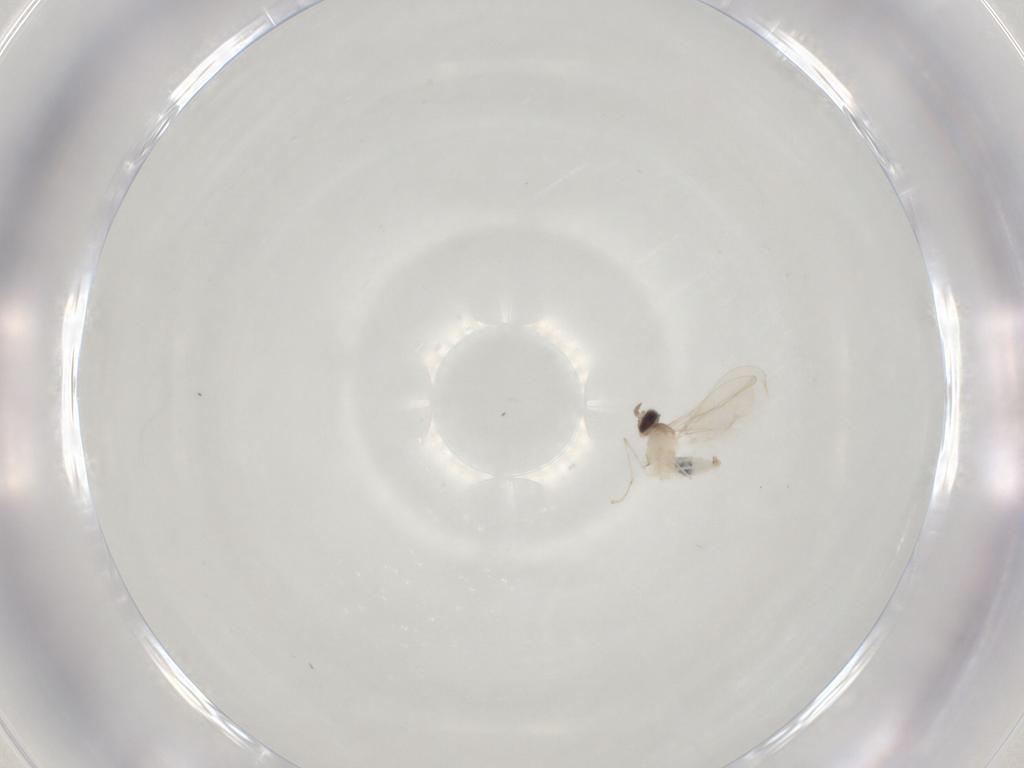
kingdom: Animalia
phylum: Arthropoda
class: Insecta
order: Diptera
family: Cecidomyiidae
